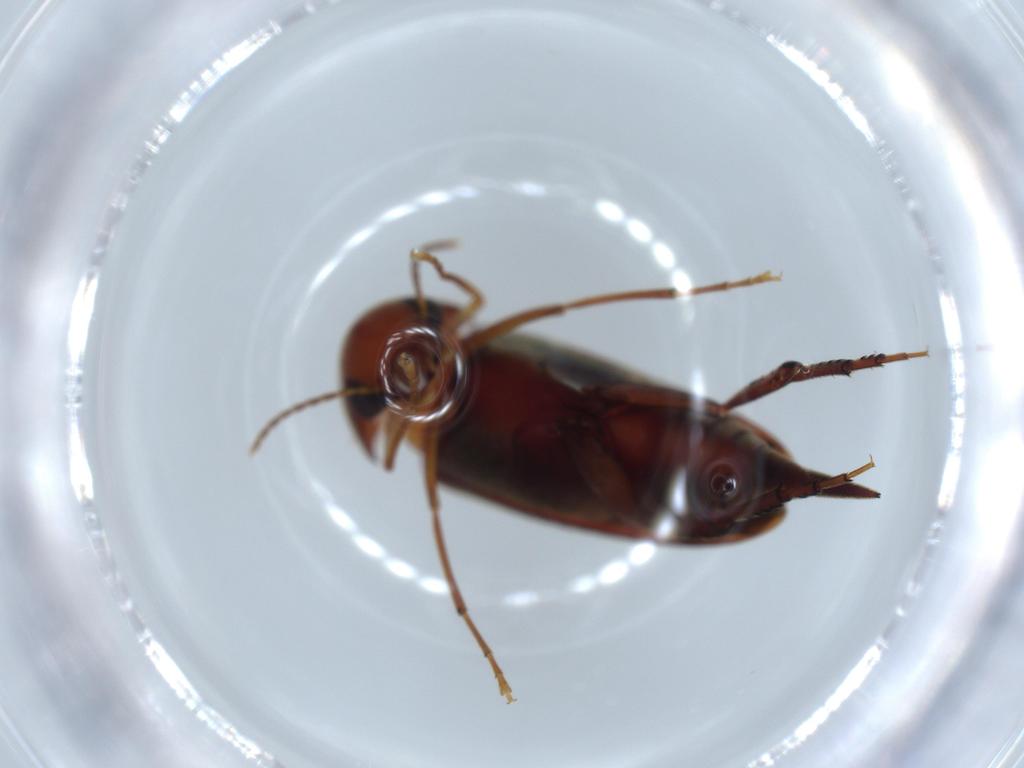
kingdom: Animalia
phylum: Arthropoda
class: Insecta
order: Coleoptera
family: Curculionidae
